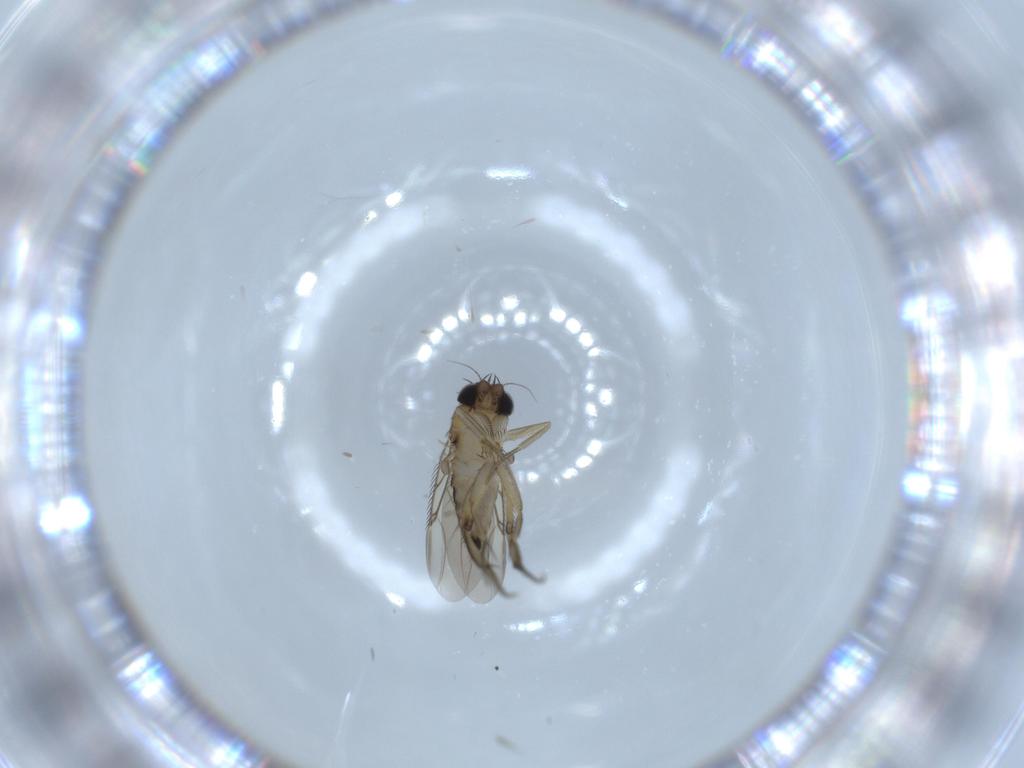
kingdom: Animalia
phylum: Arthropoda
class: Insecta
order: Diptera
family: Phoridae
